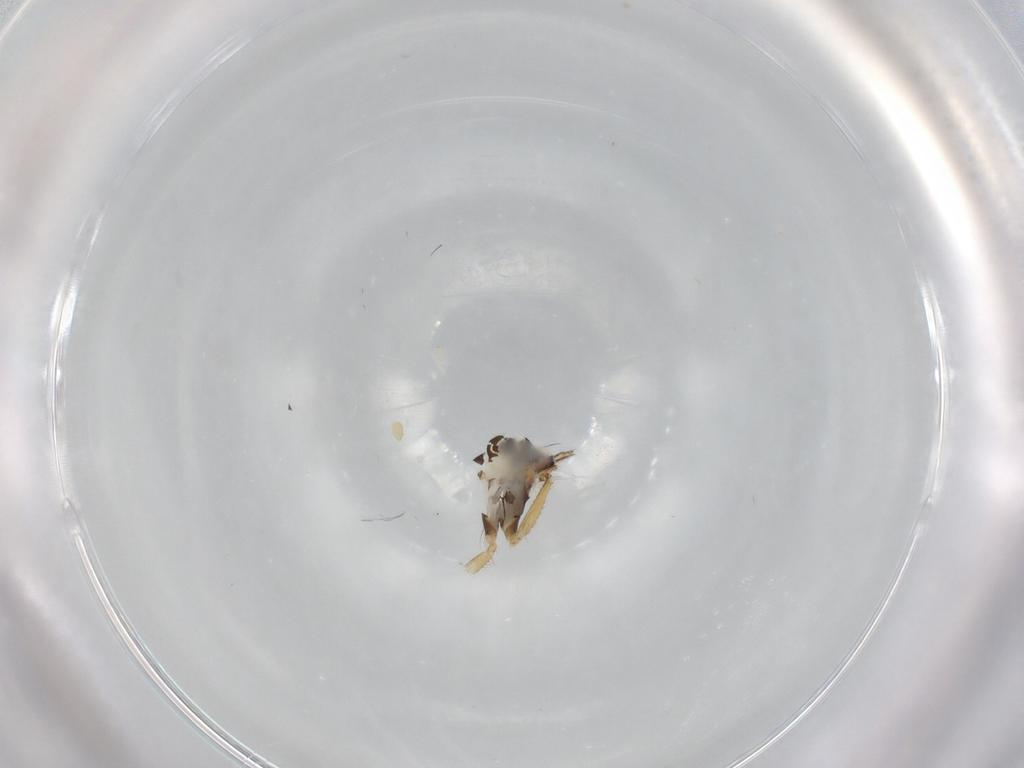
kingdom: Animalia
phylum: Arthropoda
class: Insecta
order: Diptera
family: Dolichopodidae
